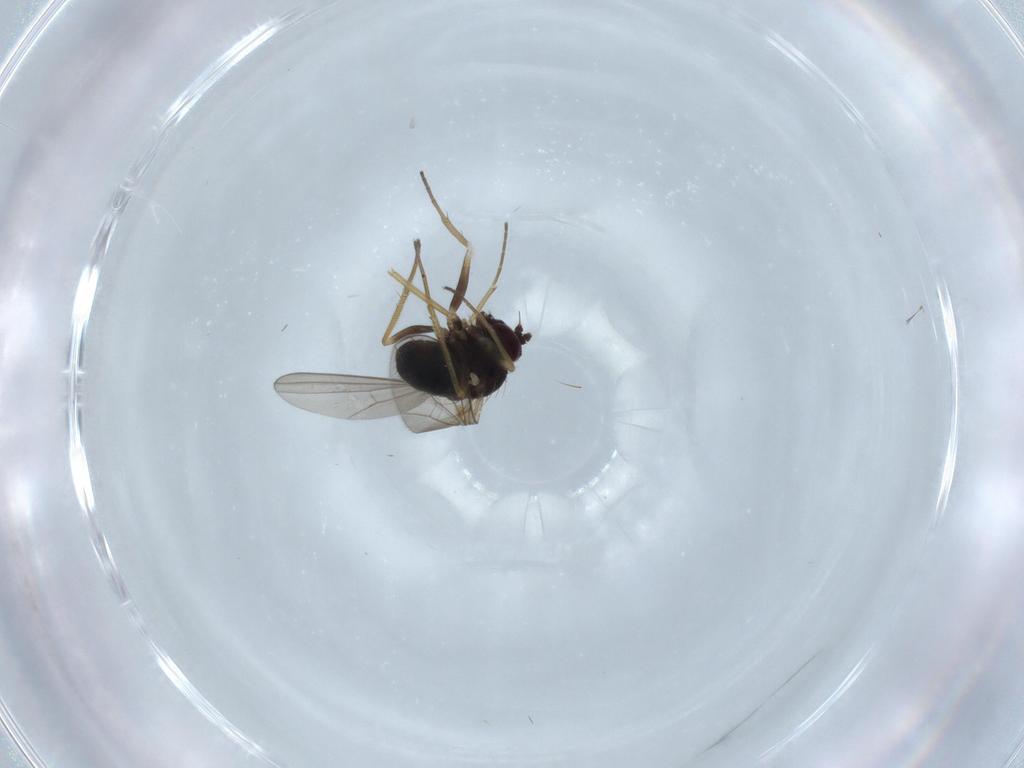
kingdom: Animalia
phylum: Arthropoda
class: Insecta
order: Diptera
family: Dolichopodidae
